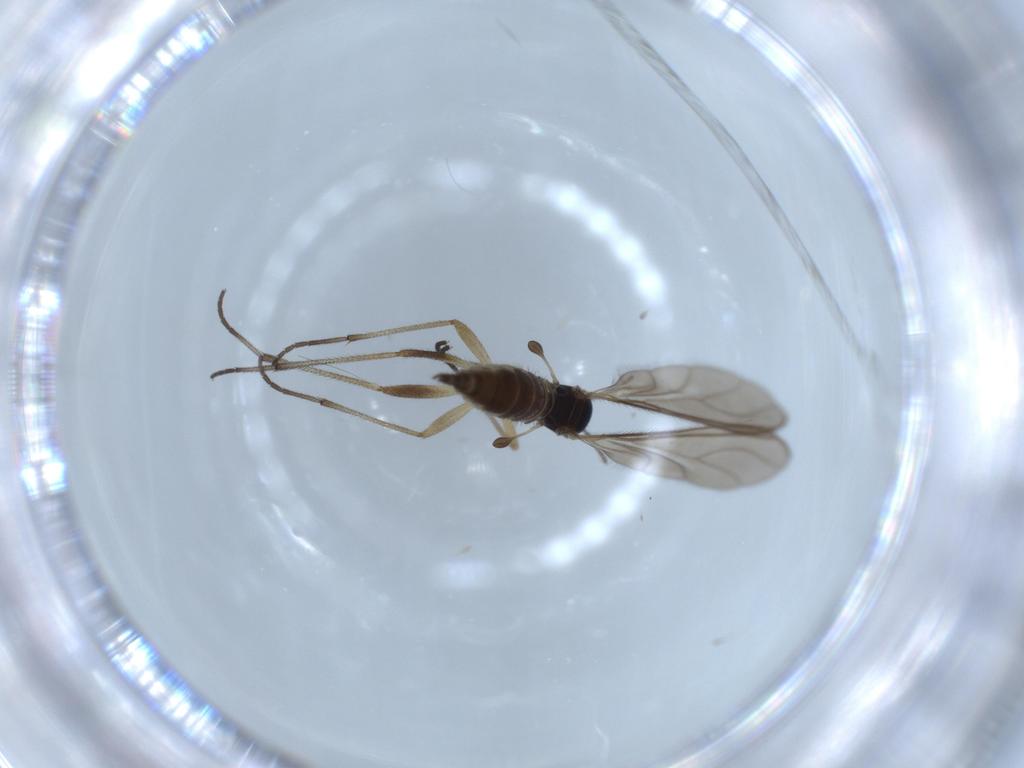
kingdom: Animalia
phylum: Arthropoda
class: Insecta
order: Diptera
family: Sciaridae
